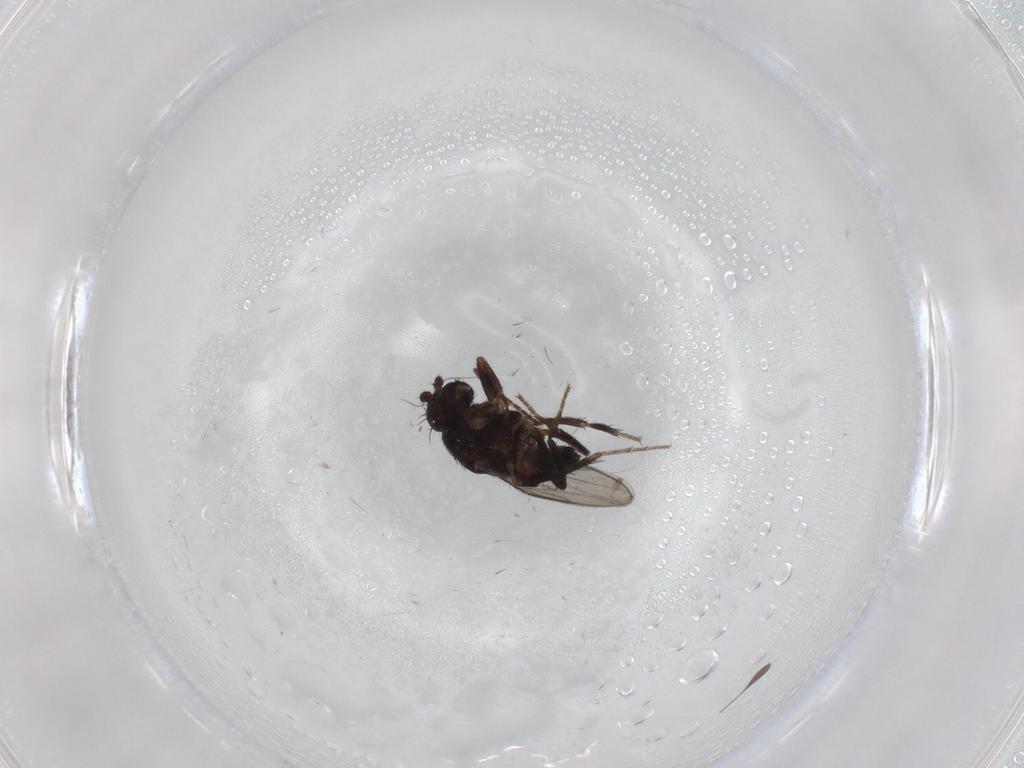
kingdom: Animalia
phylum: Arthropoda
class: Insecta
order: Diptera
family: Sphaeroceridae
